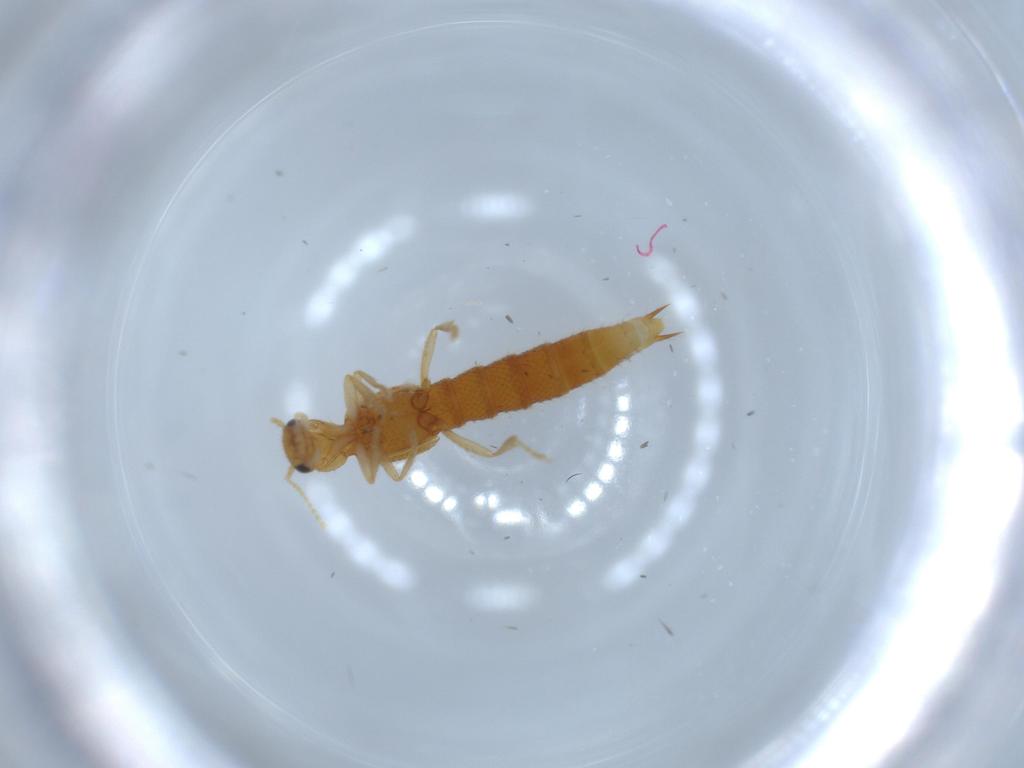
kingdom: Animalia
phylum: Arthropoda
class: Insecta
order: Coleoptera
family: Staphylinidae
